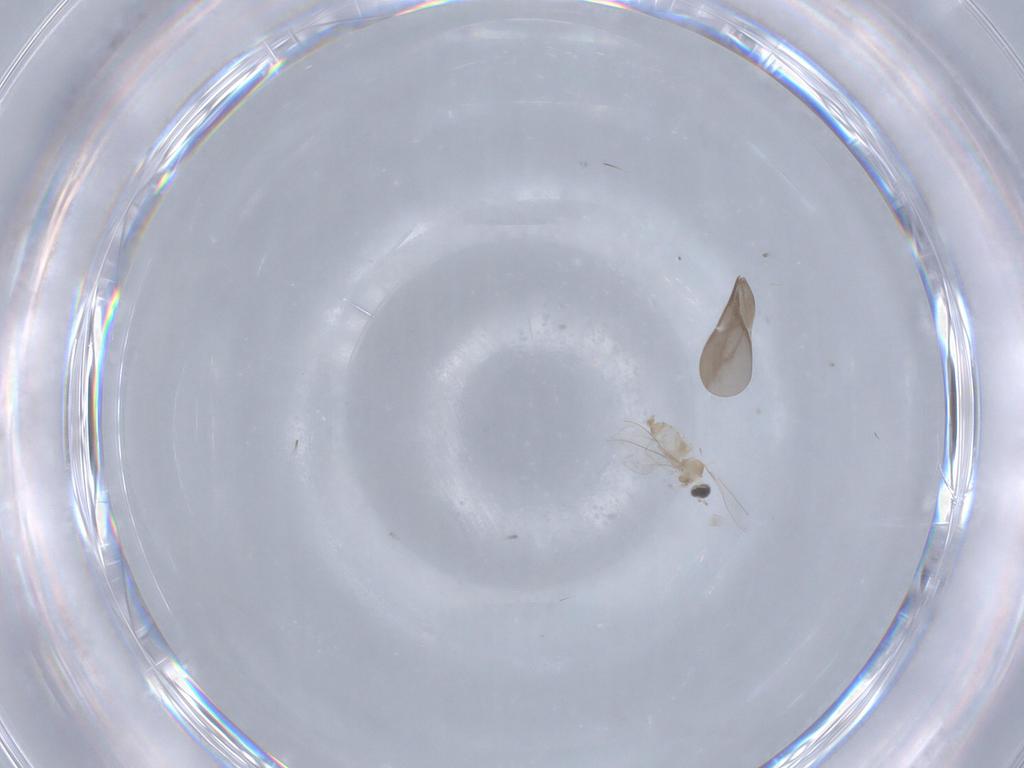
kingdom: Animalia
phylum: Arthropoda
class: Insecta
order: Diptera
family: Cecidomyiidae
